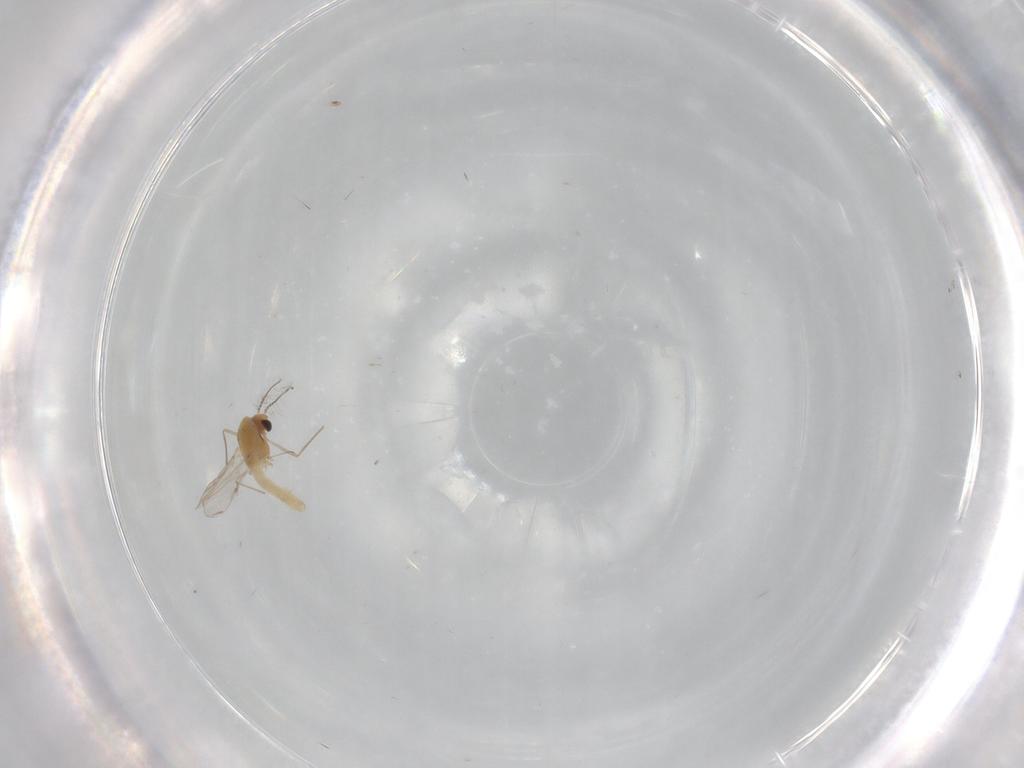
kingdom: Animalia
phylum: Arthropoda
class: Insecta
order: Diptera
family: Chironomidae
